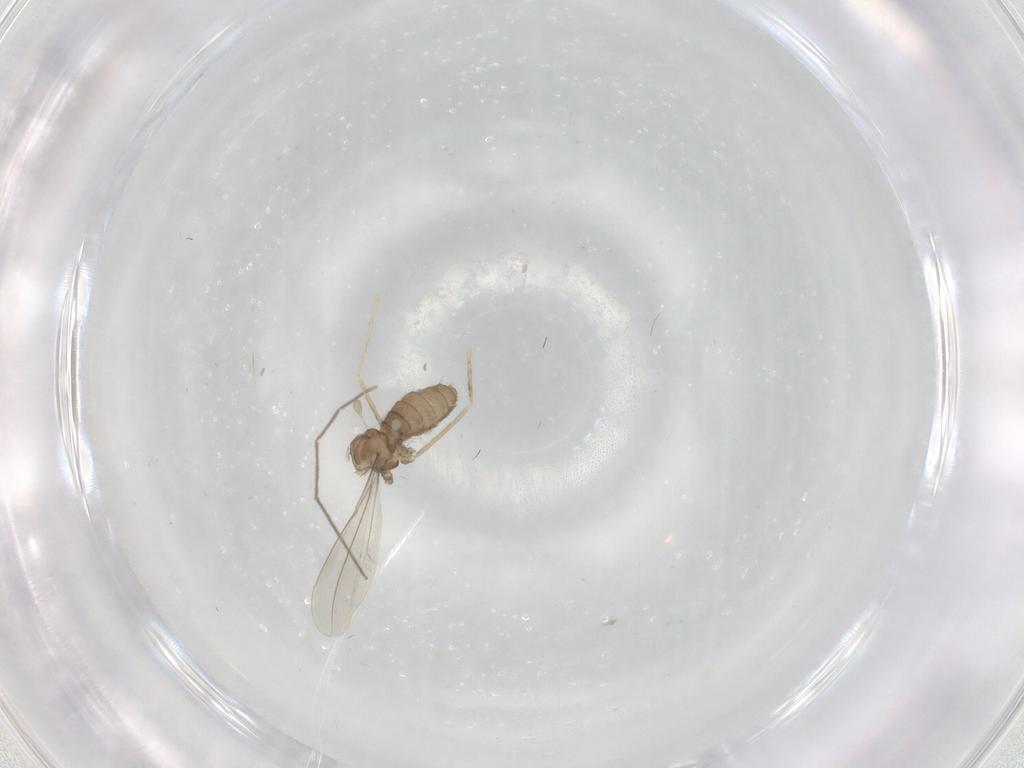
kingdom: Animalia
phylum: Arthropoda
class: Insecta
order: Diptera
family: Cecidomyiidae
